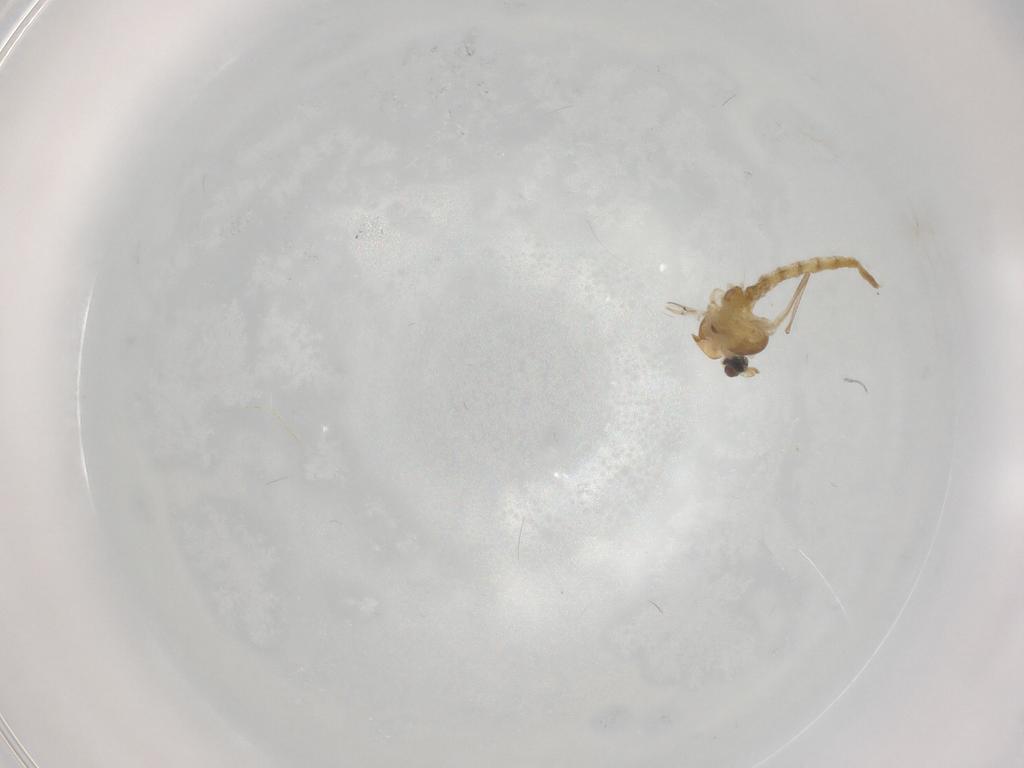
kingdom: Animalia
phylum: Arthropoda
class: Insecta
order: Diptera
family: Chironomidae
